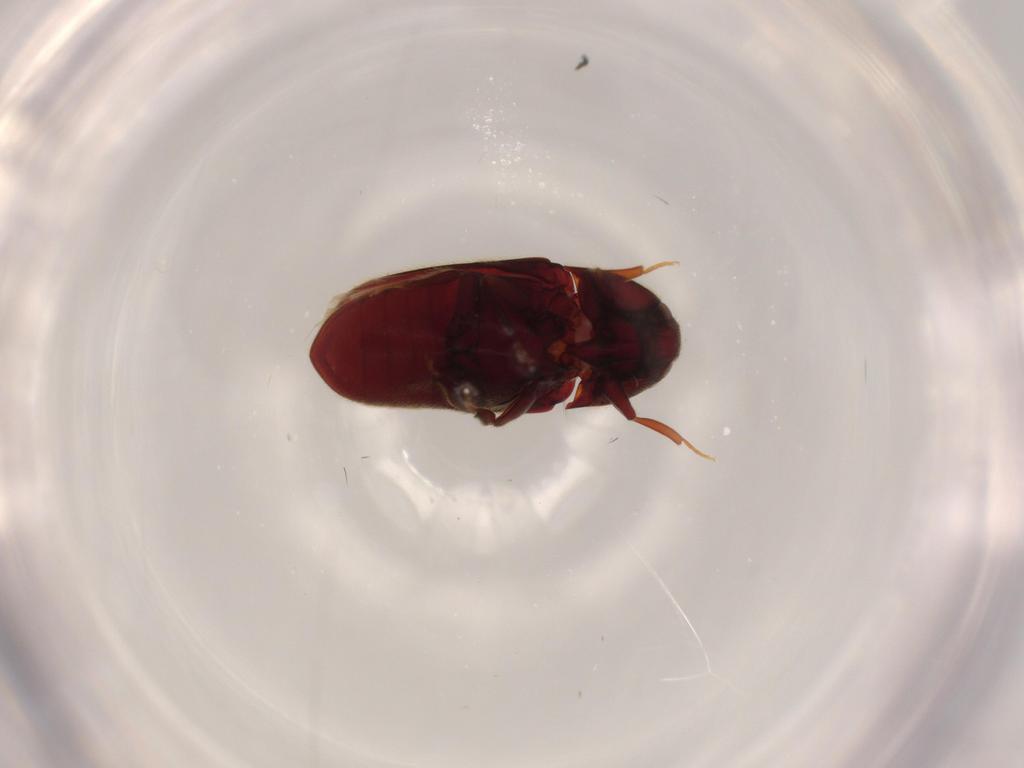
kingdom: Animalia
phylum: Arthropoda
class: Insecta
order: Coleoptera
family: Throscidae
